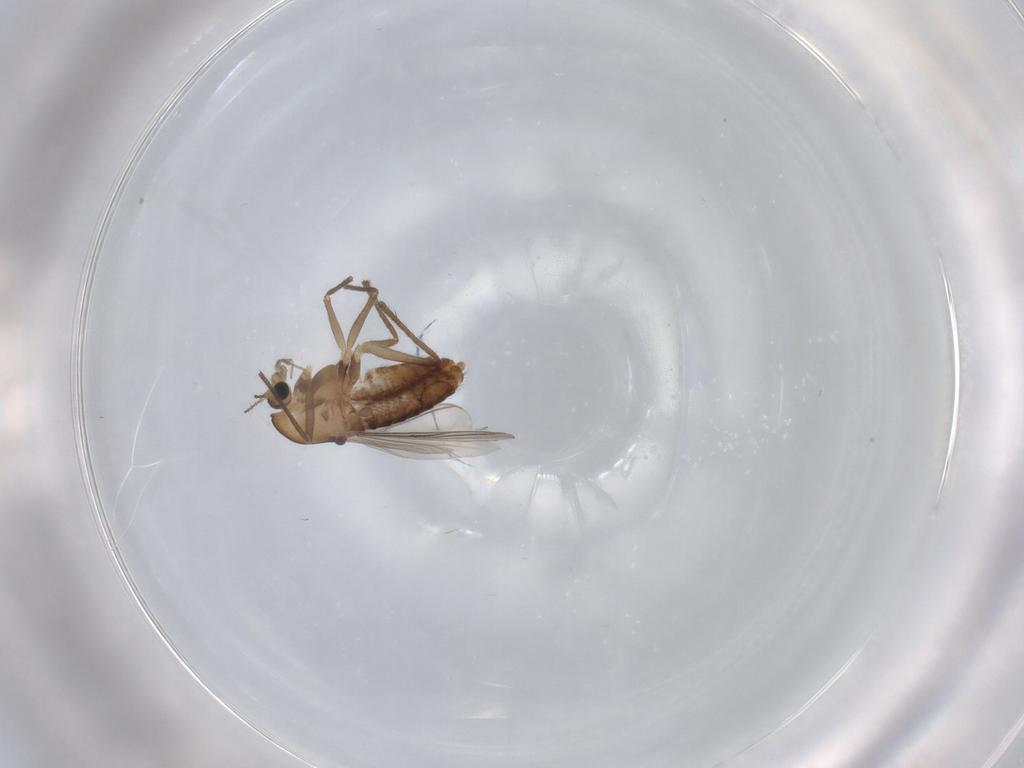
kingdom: Animalia
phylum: Arthropoda
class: Insecta
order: Diptera
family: Chironomidae
